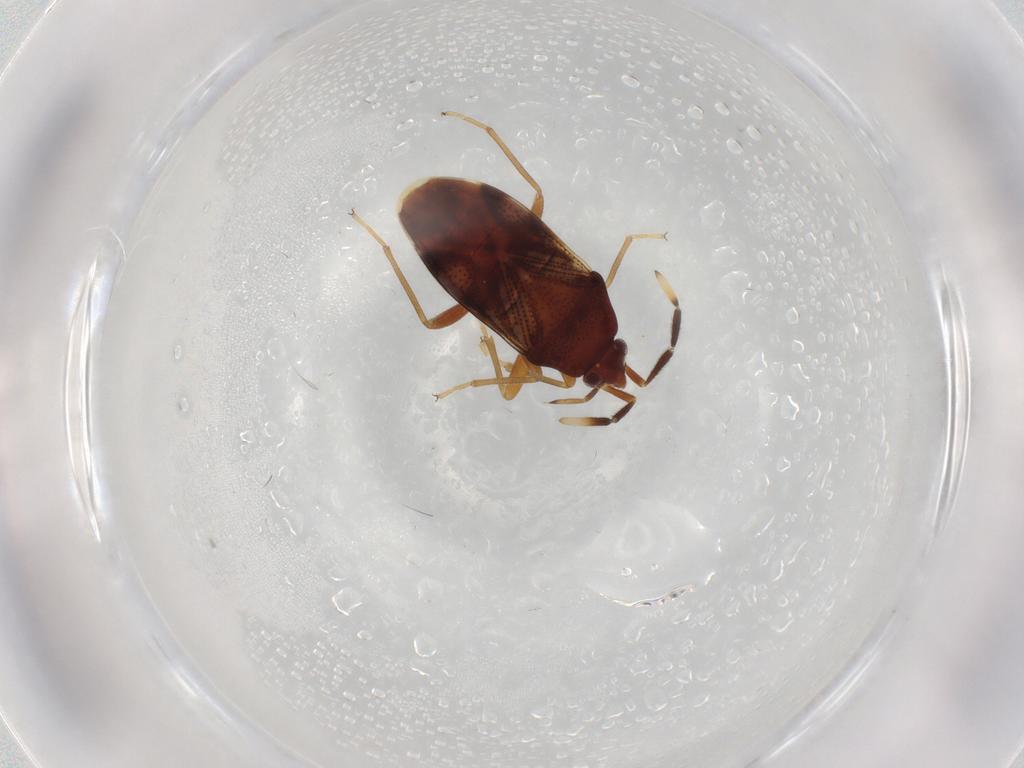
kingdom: Animalia
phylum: Arthropoda
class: Insecta
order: Hemiptera
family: Rhyparochromidae
